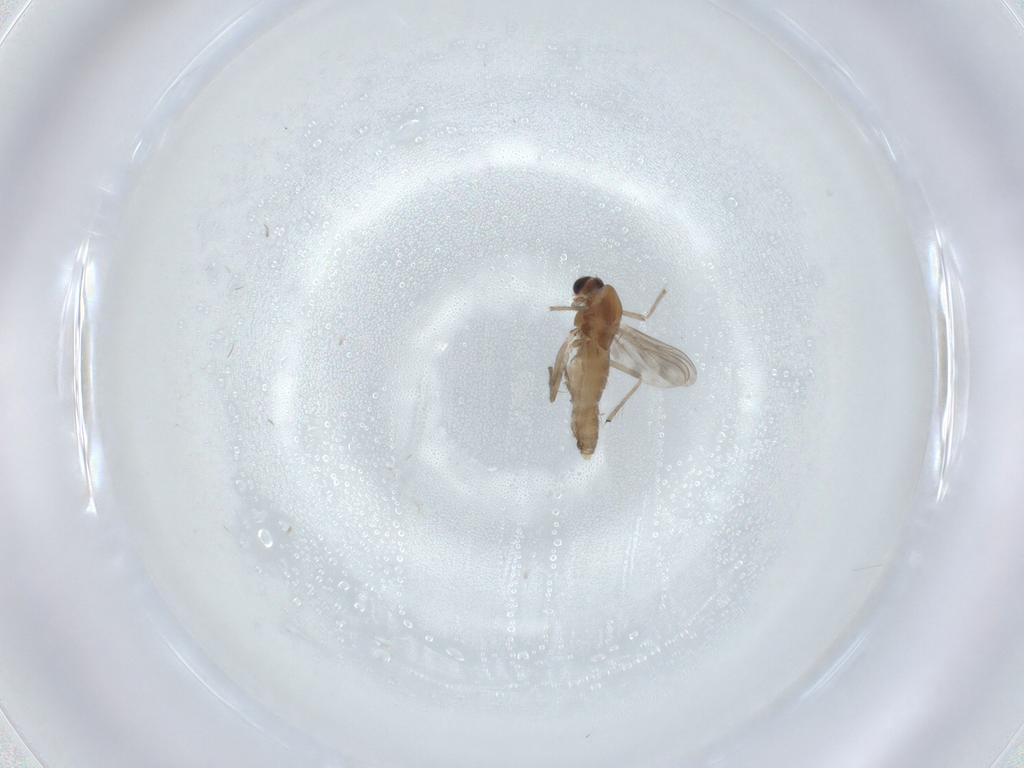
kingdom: Animalia
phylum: Arthropoda
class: Insecta
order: Diptera
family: Chironomidae
